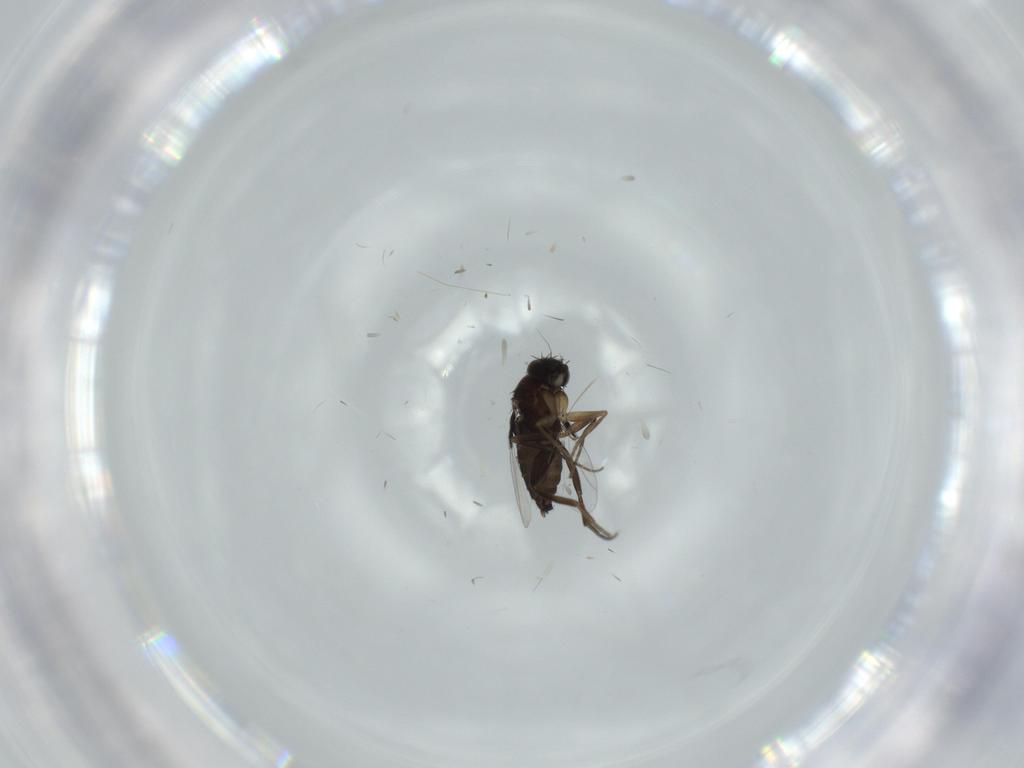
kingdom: Animalia
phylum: Arthropoda
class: Insecta
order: Diptera
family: Phoridae
